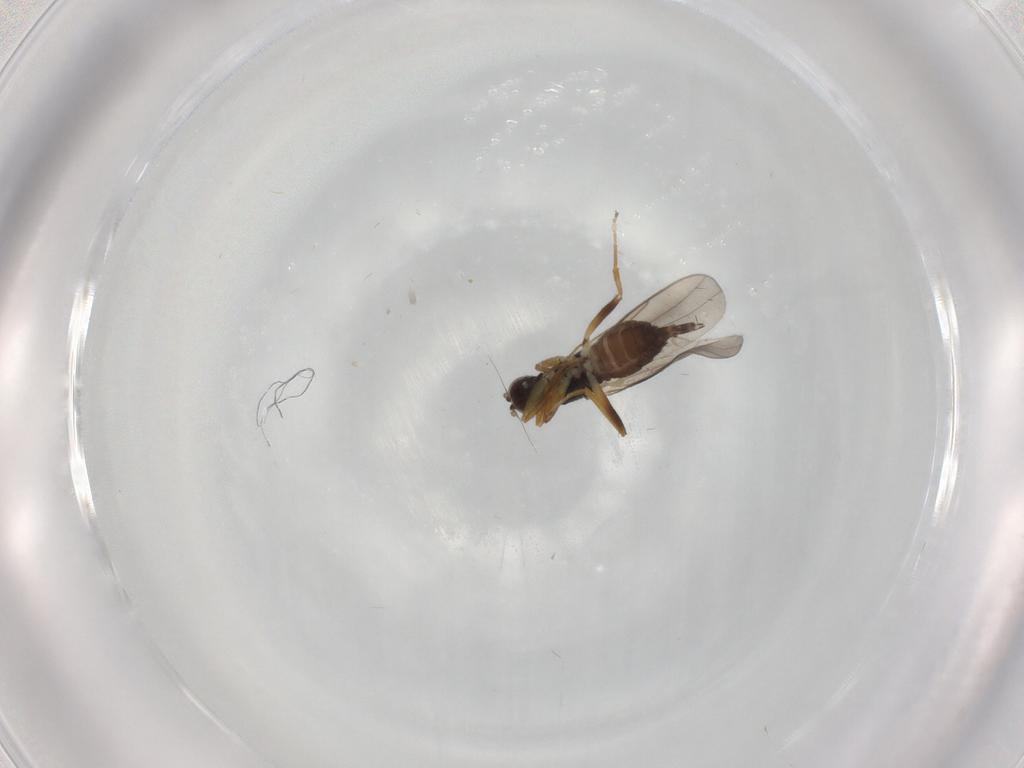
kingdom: Animalia
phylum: Arthropoda
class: Insecta
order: Diptera
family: Hybotidae
